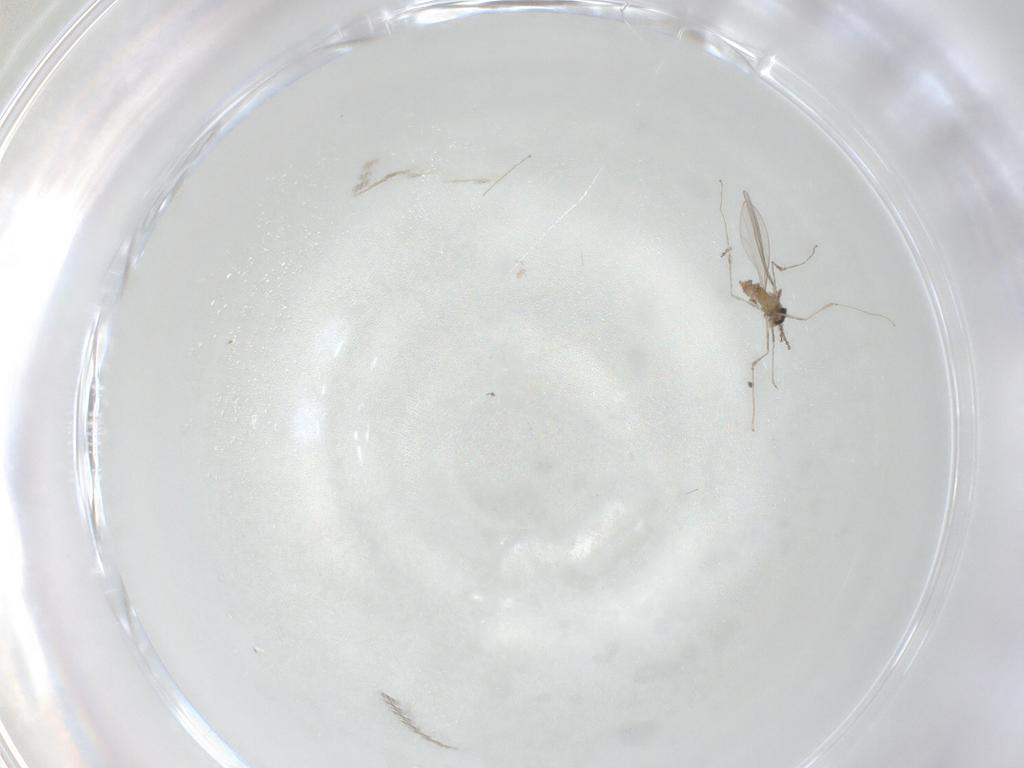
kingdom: Animalia
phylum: Arthropoda
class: Insecta
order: Diptera
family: Cecidomyiidae
